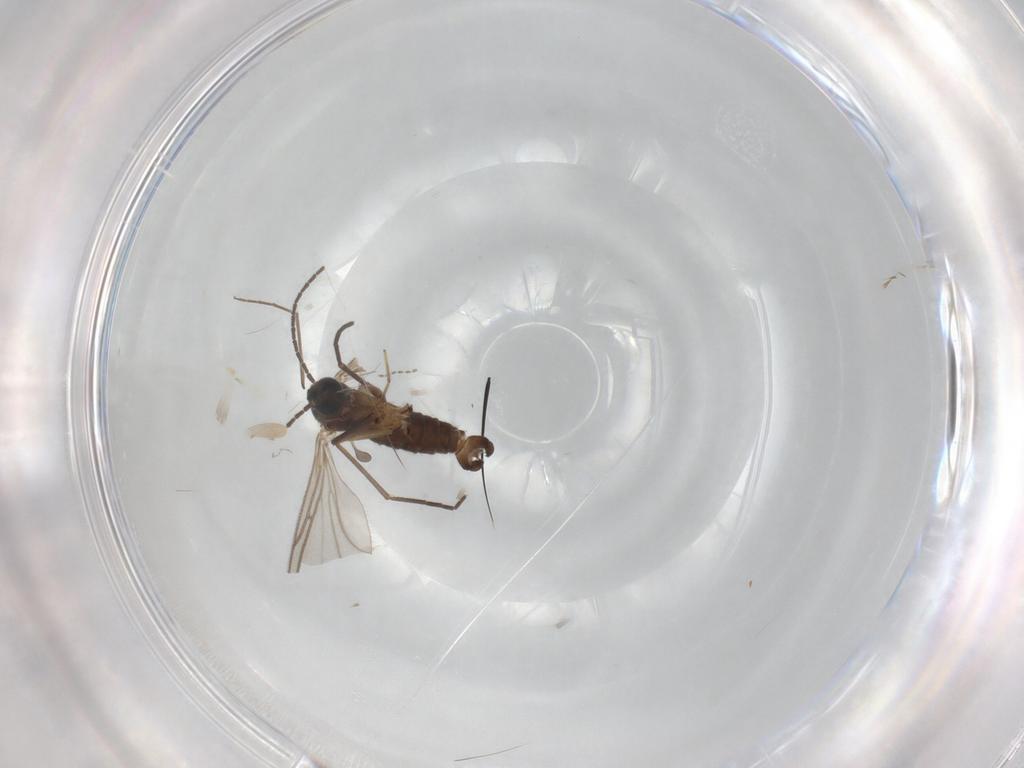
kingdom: Animalia
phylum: Arthropoda
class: Insecta
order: Diptera
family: Sciaridae
